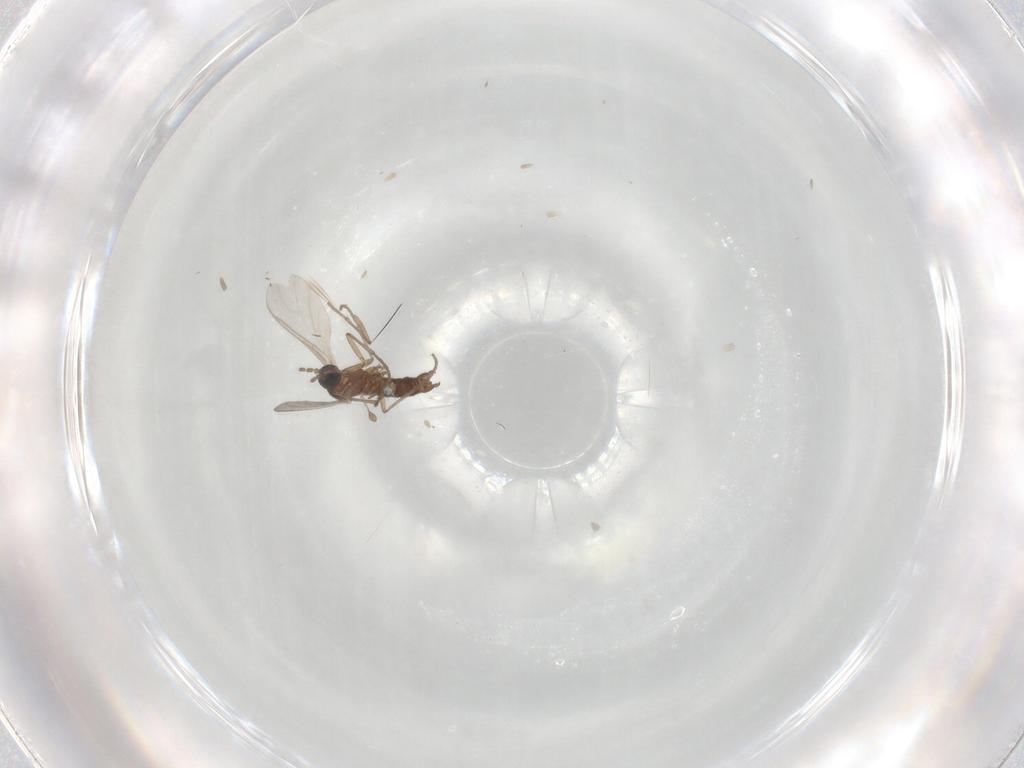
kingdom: Animalia
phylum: Arthropoda
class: Insecta
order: Diptera
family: Sciaridae
